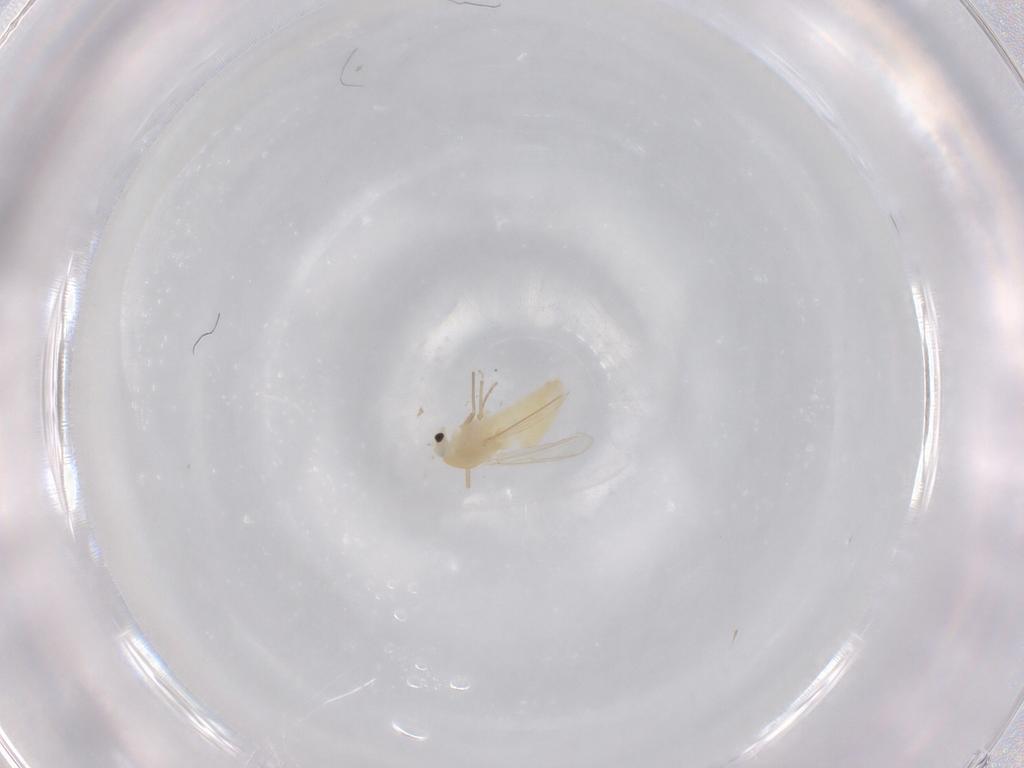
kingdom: Animalia
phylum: Arthropoda
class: Insecta
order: Diptera
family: Chironomidae
